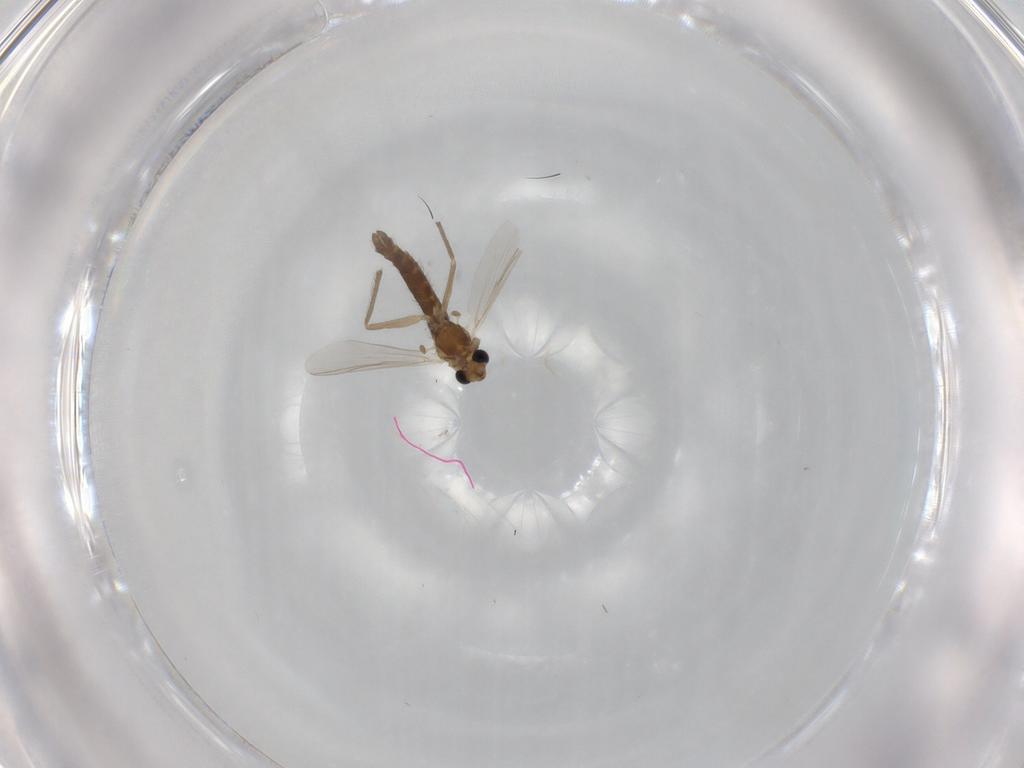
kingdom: Animalia
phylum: Arthropoda
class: Insecta
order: Diptera
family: Chironomidae
